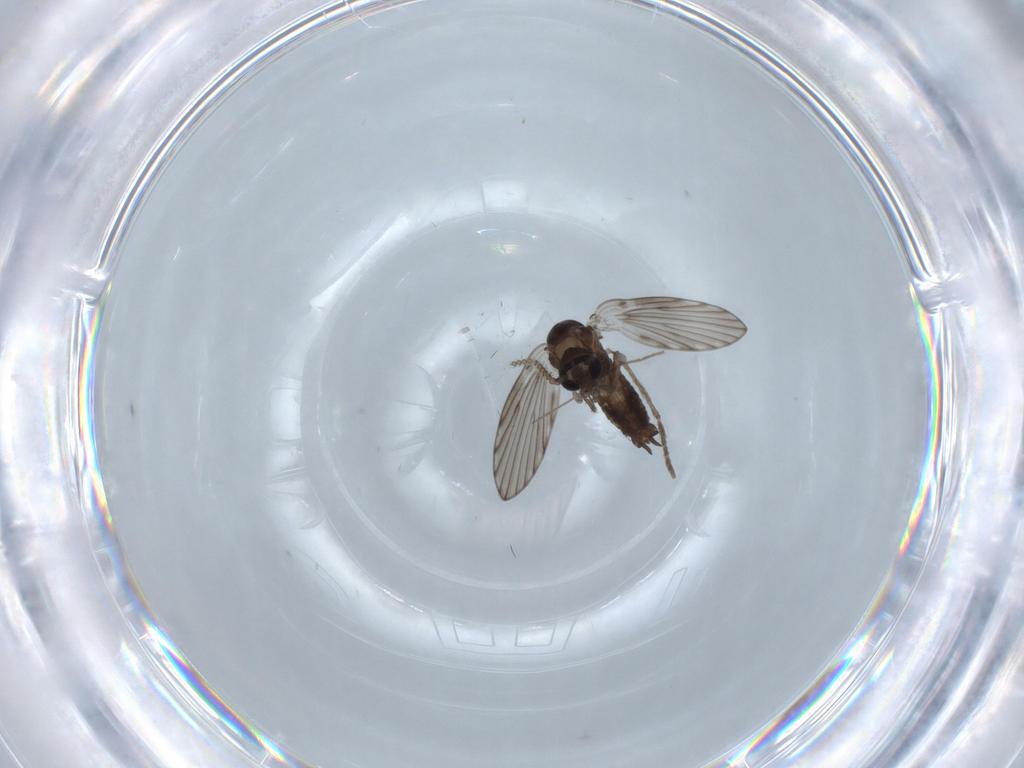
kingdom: Animalia
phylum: Arthropoda
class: Insecta
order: Diptera
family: Psychodidae
